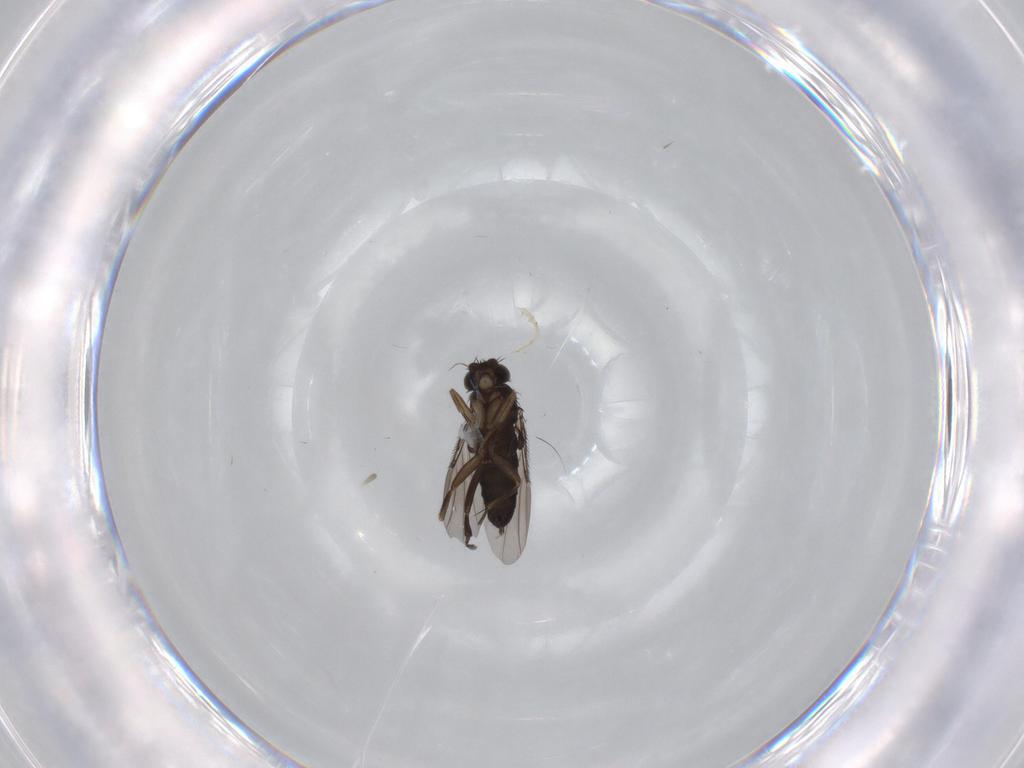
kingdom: Animalia
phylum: Arthropoda
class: Insecta
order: Diptera
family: Phoridae
